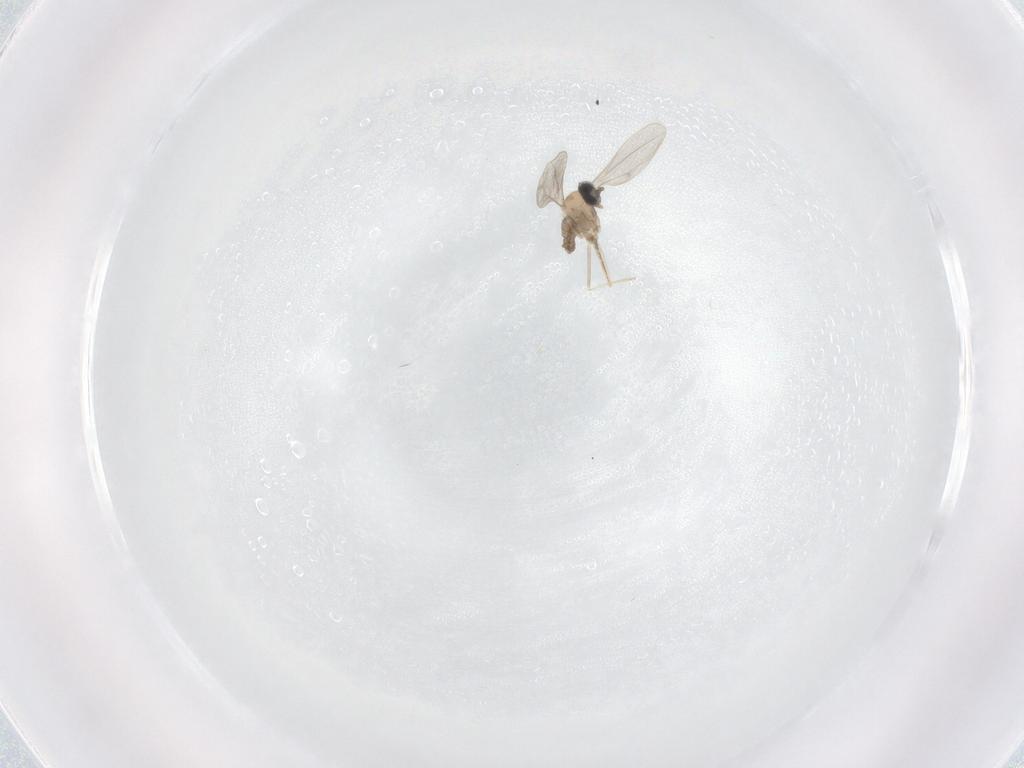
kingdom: Animalia
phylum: Arthropoda
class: Insecta
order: Diptera
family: Cecidomyiidae
